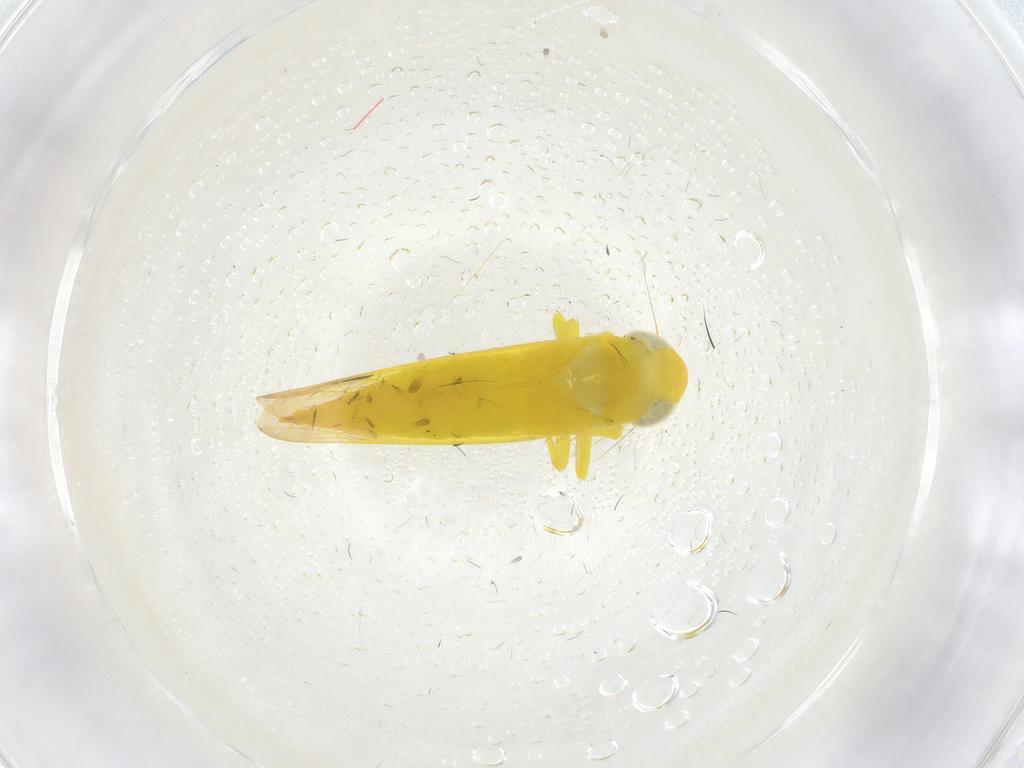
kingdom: Animalia
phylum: Arthropoda
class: Insecta
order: Hemiptera
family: Cicadellidae
